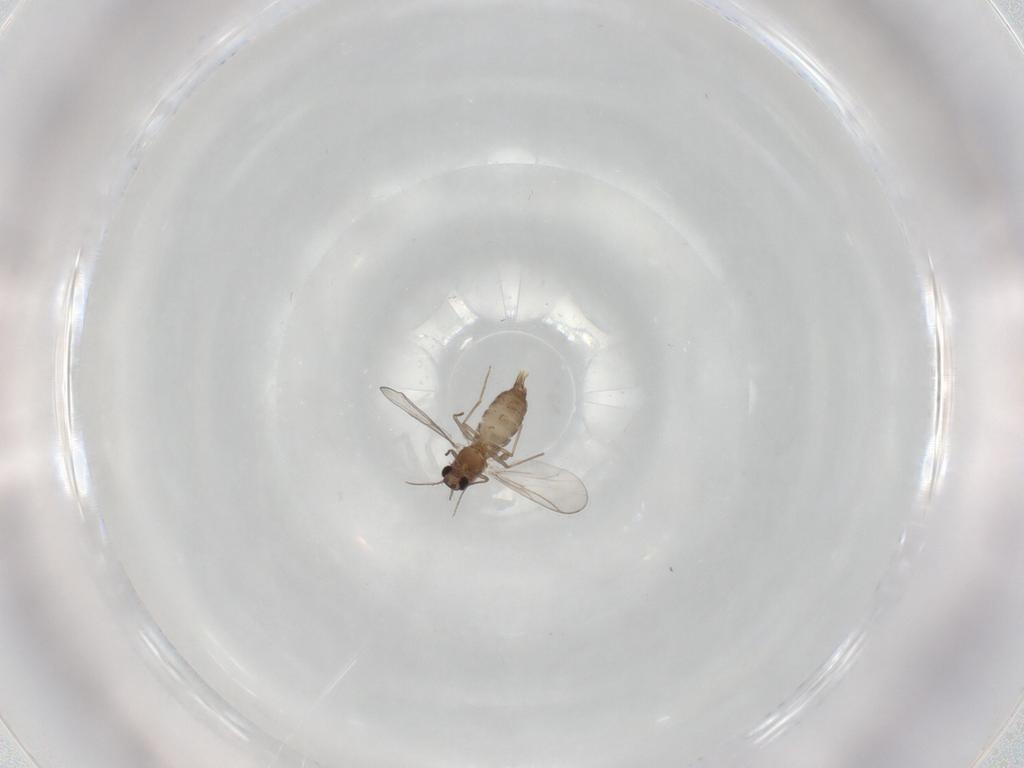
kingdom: Animalia
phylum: Arthropoda
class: Insecta
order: Diptera
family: Chironomidae
